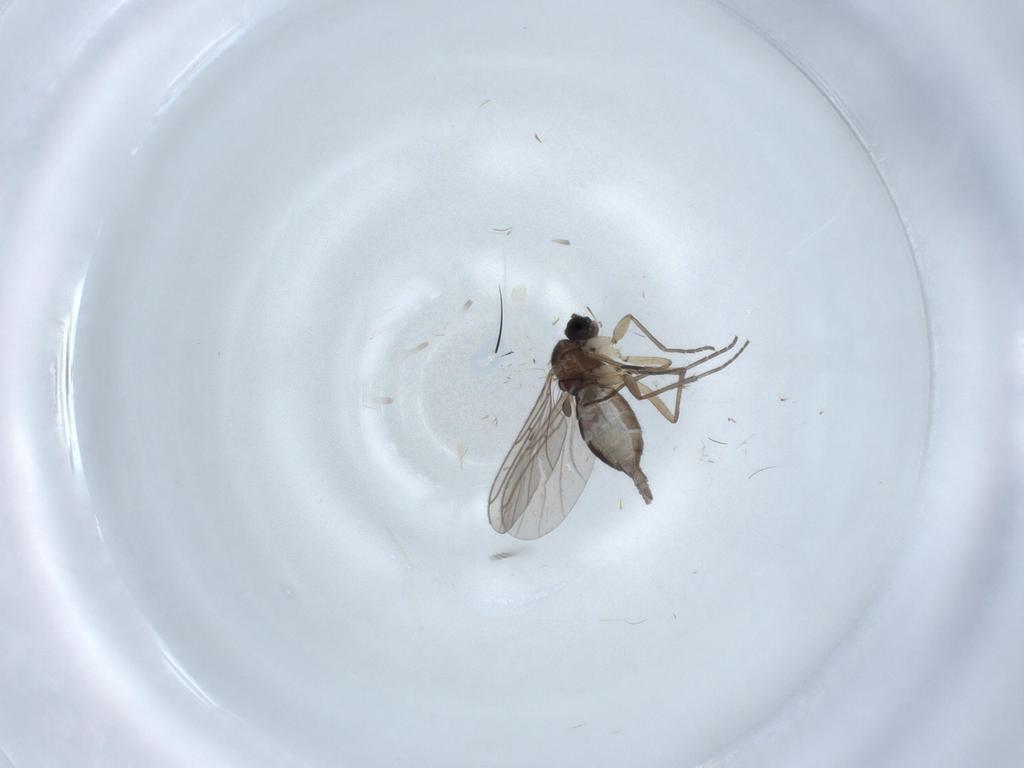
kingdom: Animalia
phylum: Arthropoda
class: Insecta
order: Diptera
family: Sciaridae
